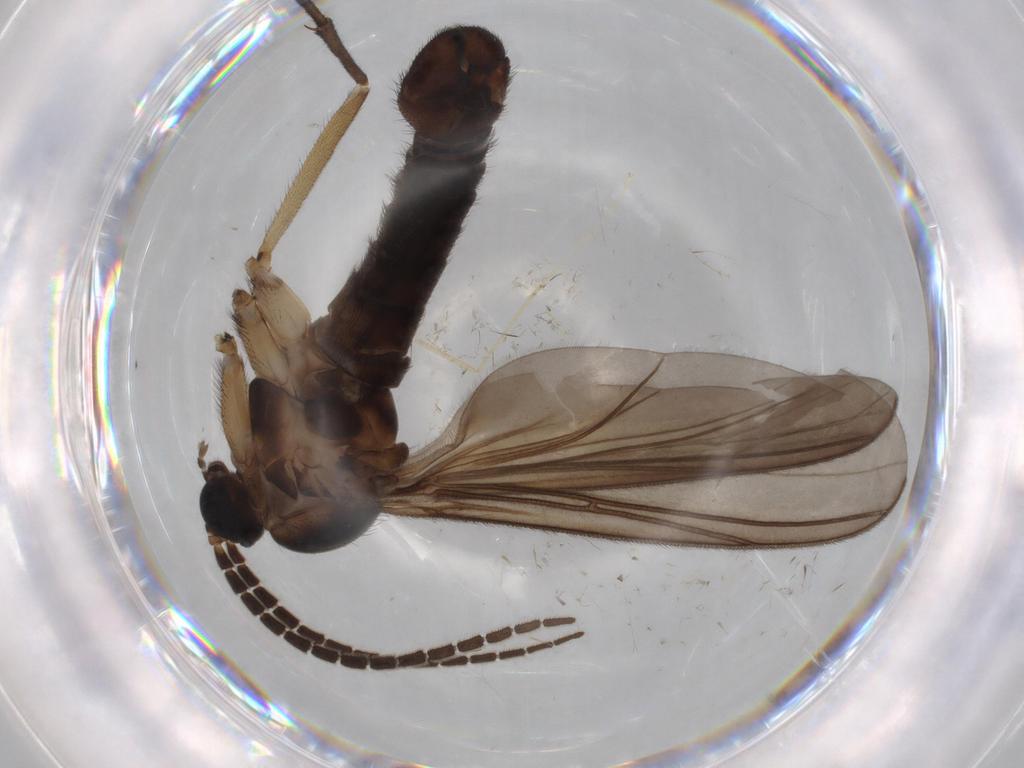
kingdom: Animalia
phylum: Arthropoda
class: Insecta
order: Diptera
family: Sciaridae
